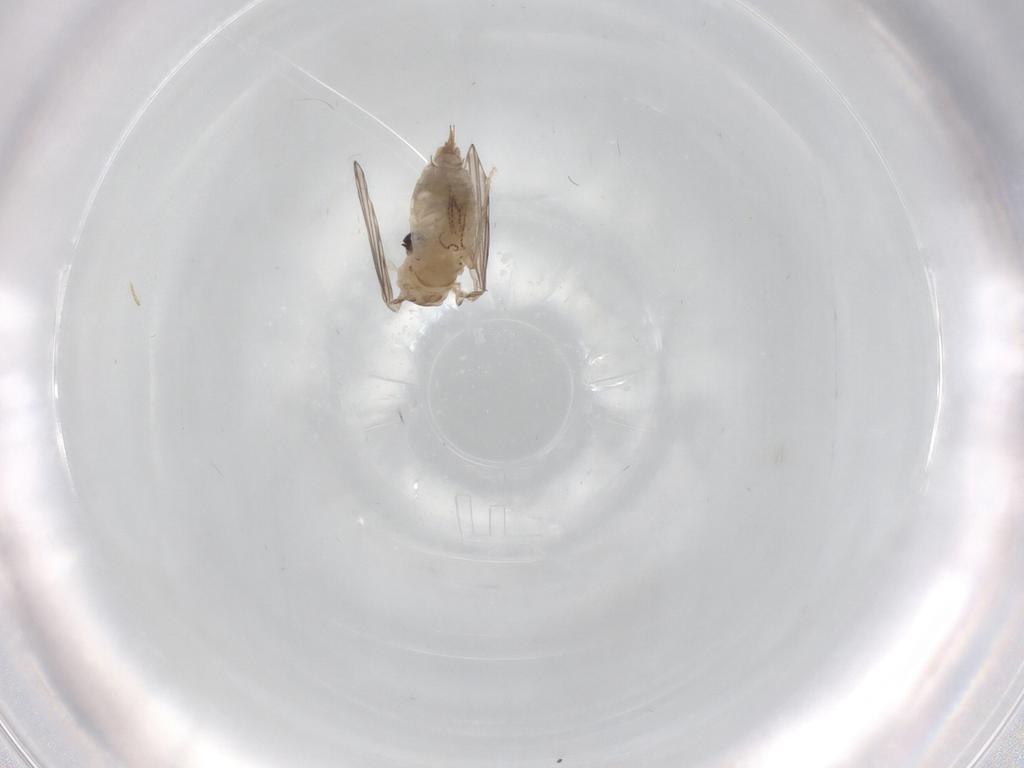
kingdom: Animalia
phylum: Arthropoda
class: Insecta
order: Diptera
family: Psychodidae
